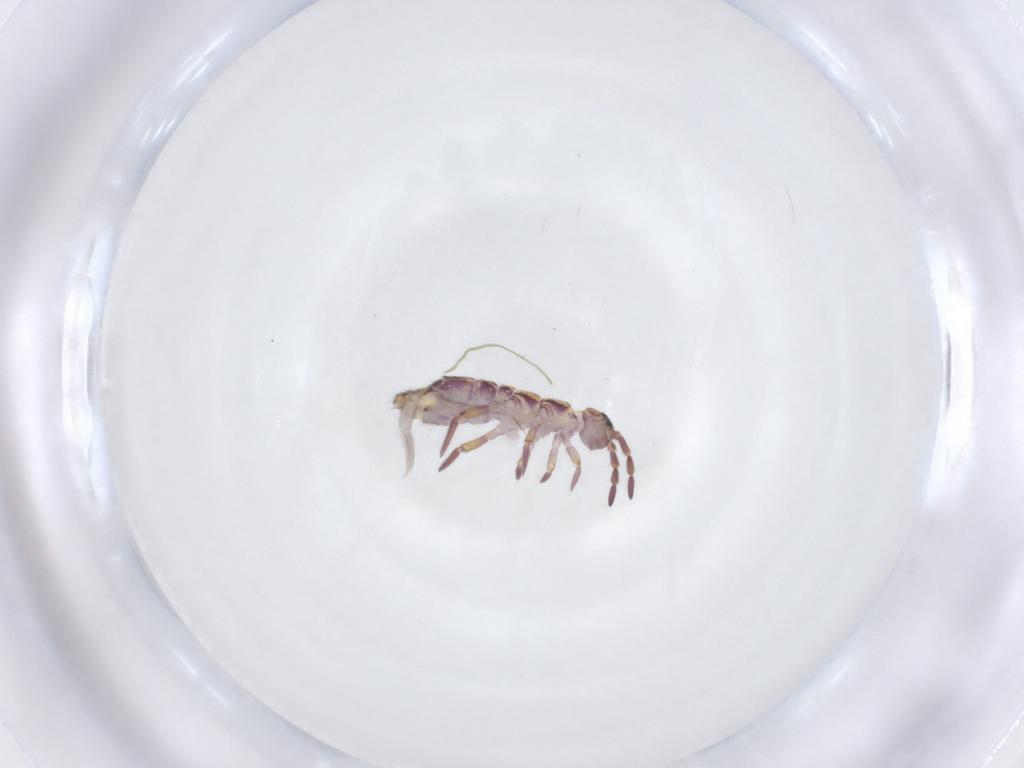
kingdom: Animalia
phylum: Arthropoda
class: Collembola
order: Entomobryomorpha
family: Isotomidae
